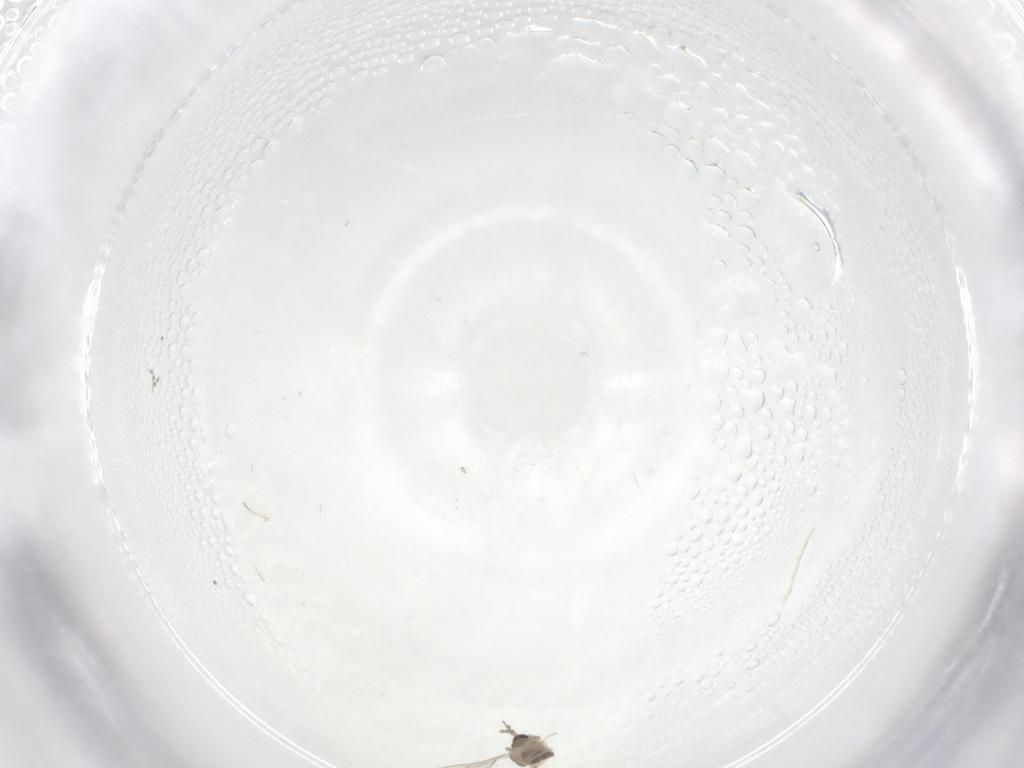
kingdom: Animalia
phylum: Arthropoda
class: Insecta
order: Diptera
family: Cecidomyiidae
